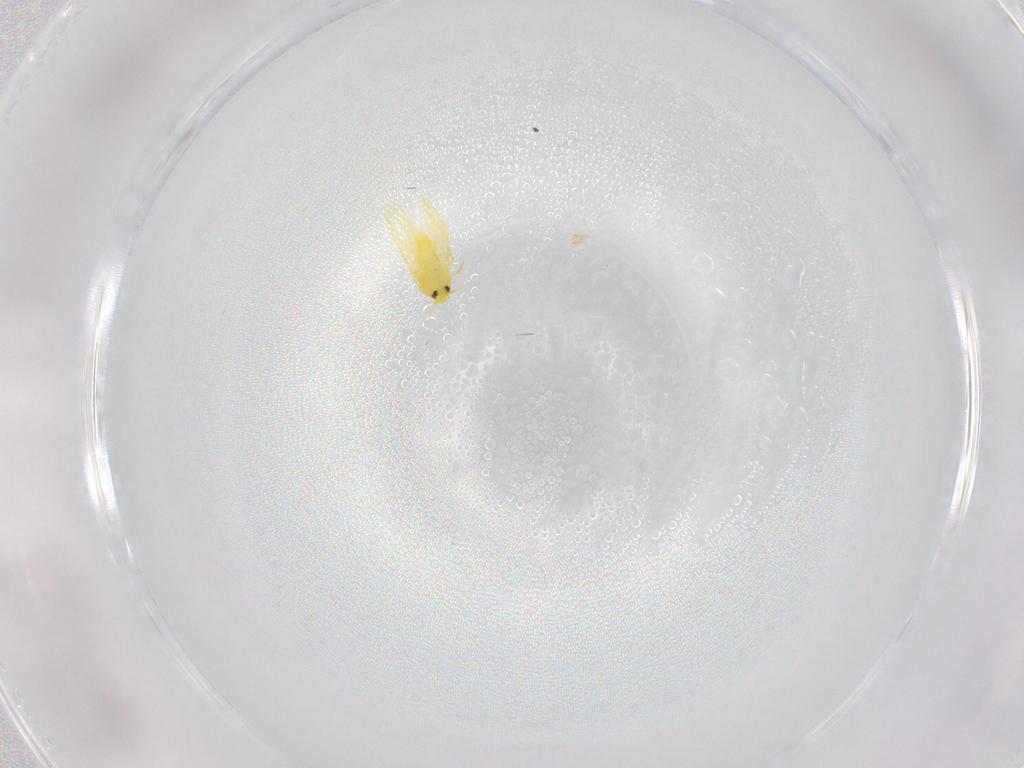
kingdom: Animalia
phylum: Arthropoda
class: Insecta
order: Hemiptera
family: Aleyrodidae
